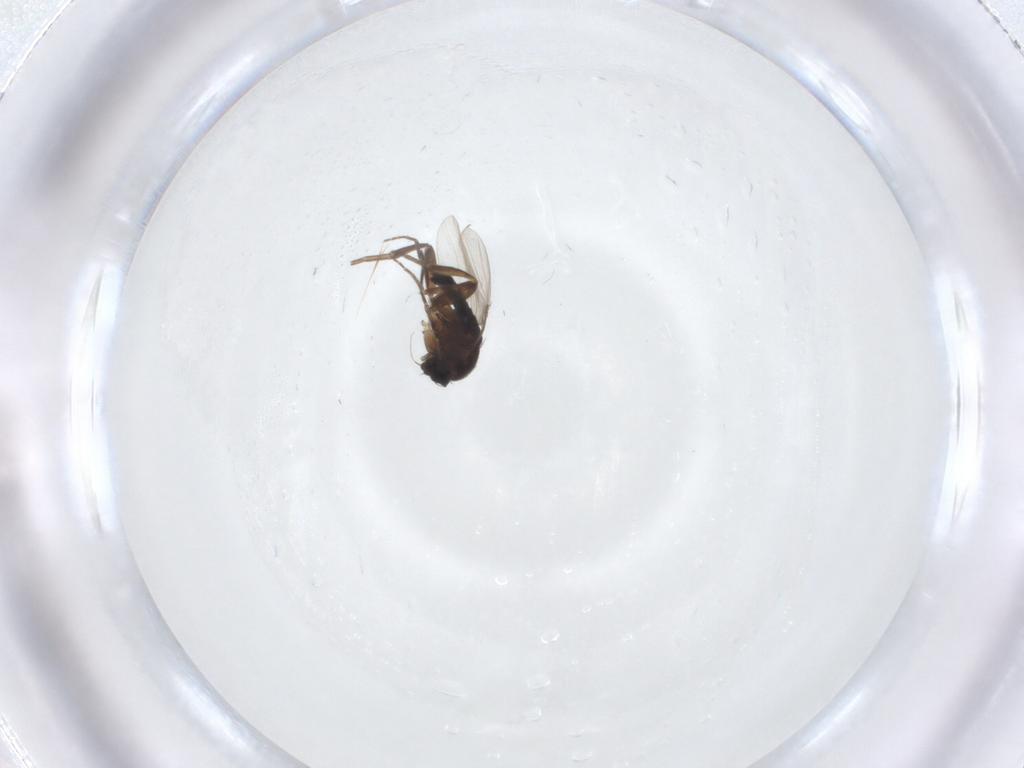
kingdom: Animalia
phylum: Arthropoda
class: Insecta
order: Diptera
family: Phoridae
